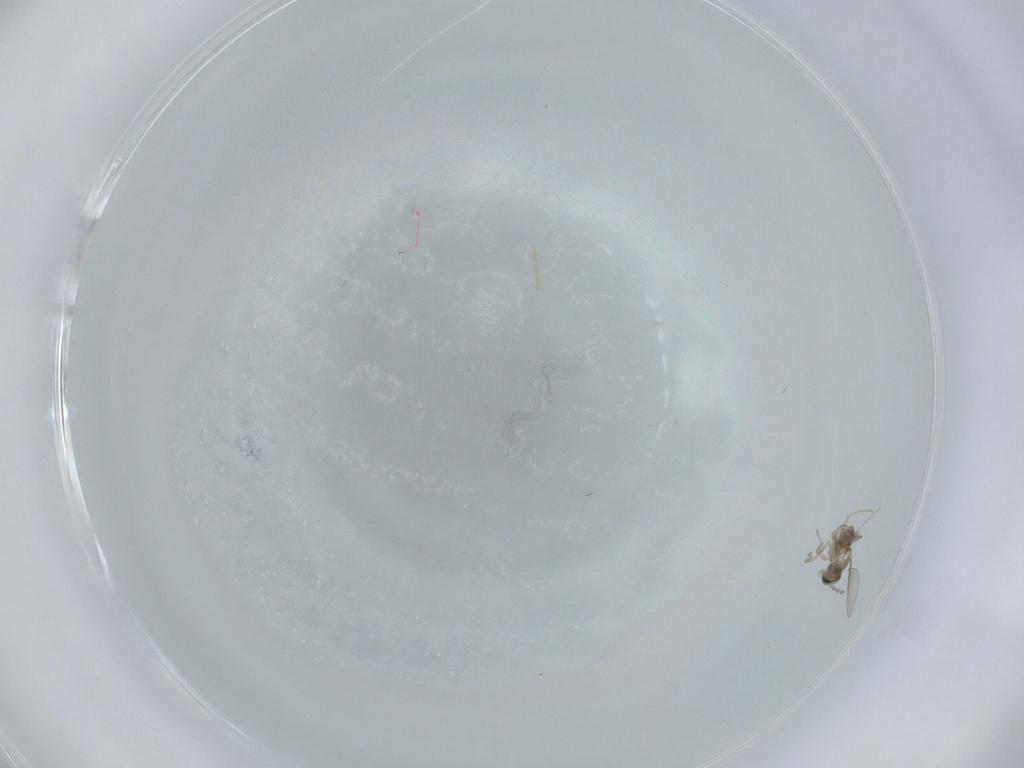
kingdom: Animalia
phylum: Arthropoda
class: Insecta
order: Diptera
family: Cecidomyiidae
